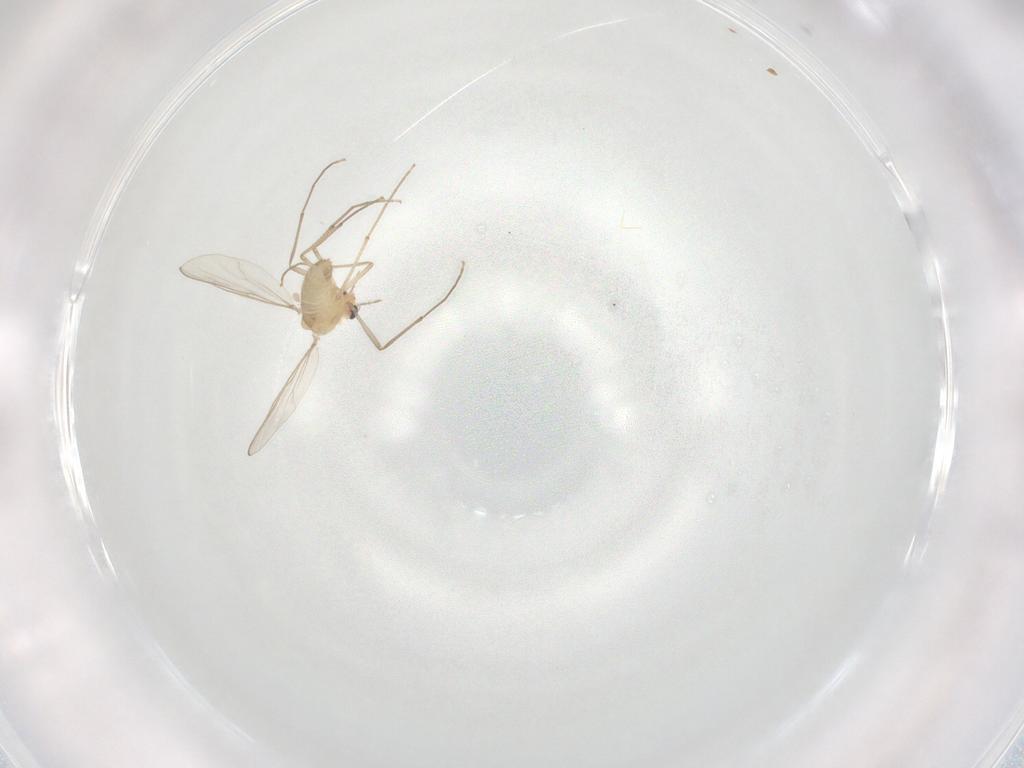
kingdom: Animalia
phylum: Arthropoda
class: Insecta
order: Diptera
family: Chironomidae
